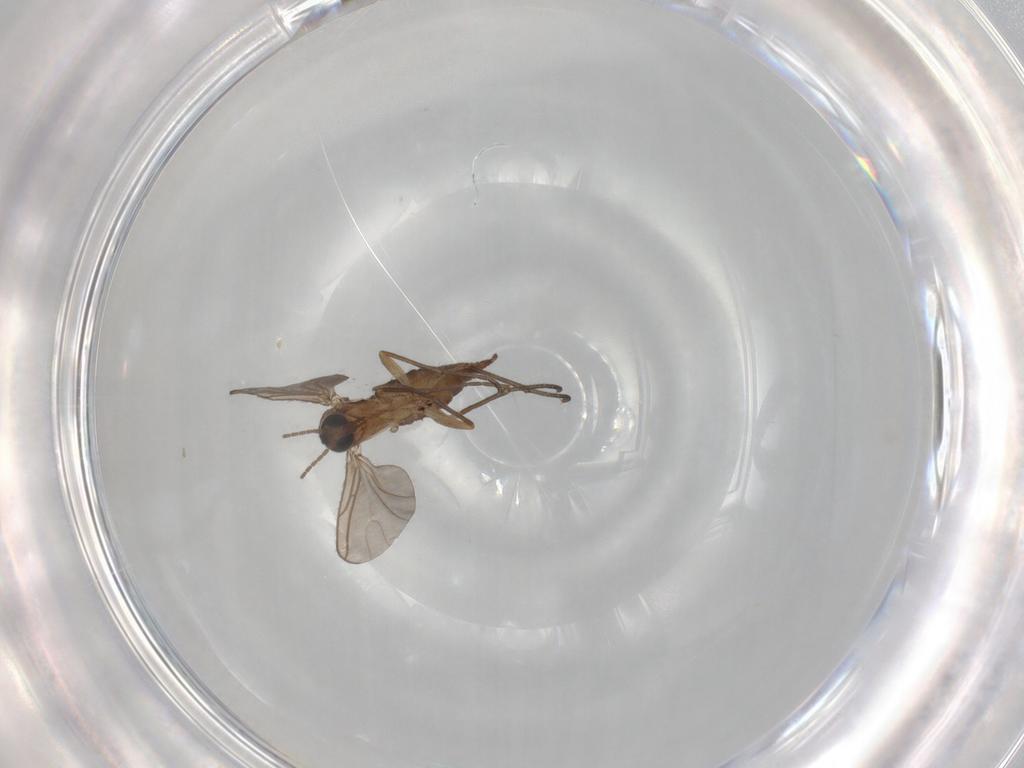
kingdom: Animalia
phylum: Arthropoda
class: Insecta
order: Diptera
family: Sciaridae
